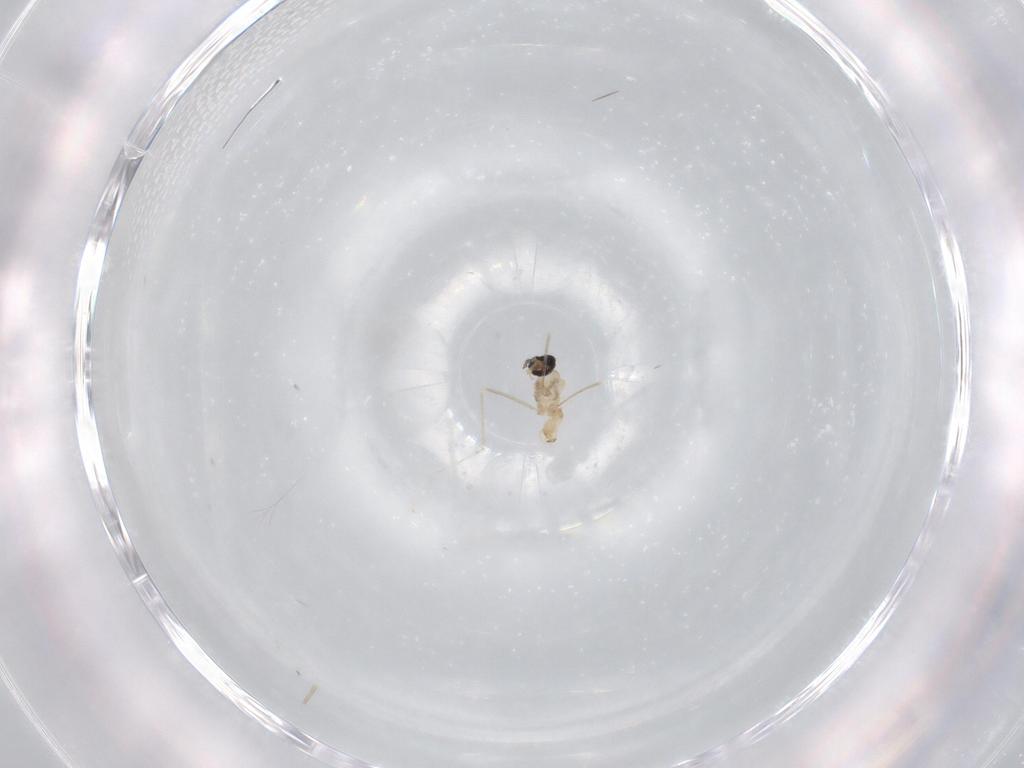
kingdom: Animalia
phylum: Arthropoda
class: Insecta
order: Diptera
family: Cecidomyiidae
